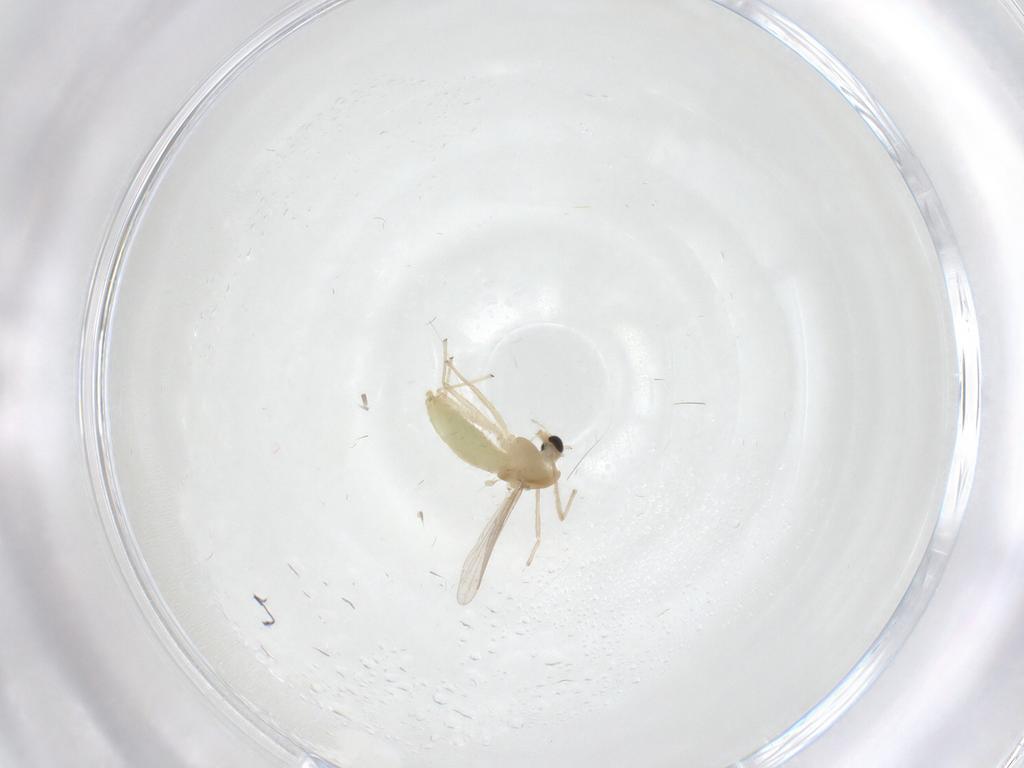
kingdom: Animalia
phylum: Arthropoda
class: Insecta
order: Diptera
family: Chironomidae
